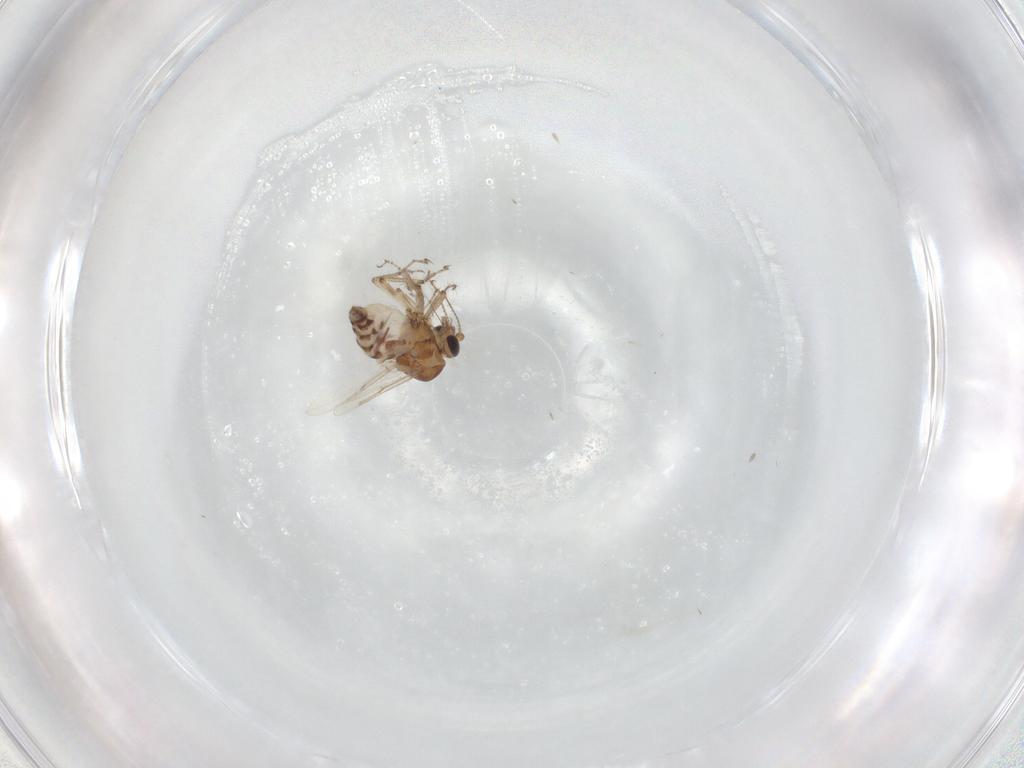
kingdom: Animalia
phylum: Arthropoda
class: Insecta
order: Diptera
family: Ceratopogonidae
